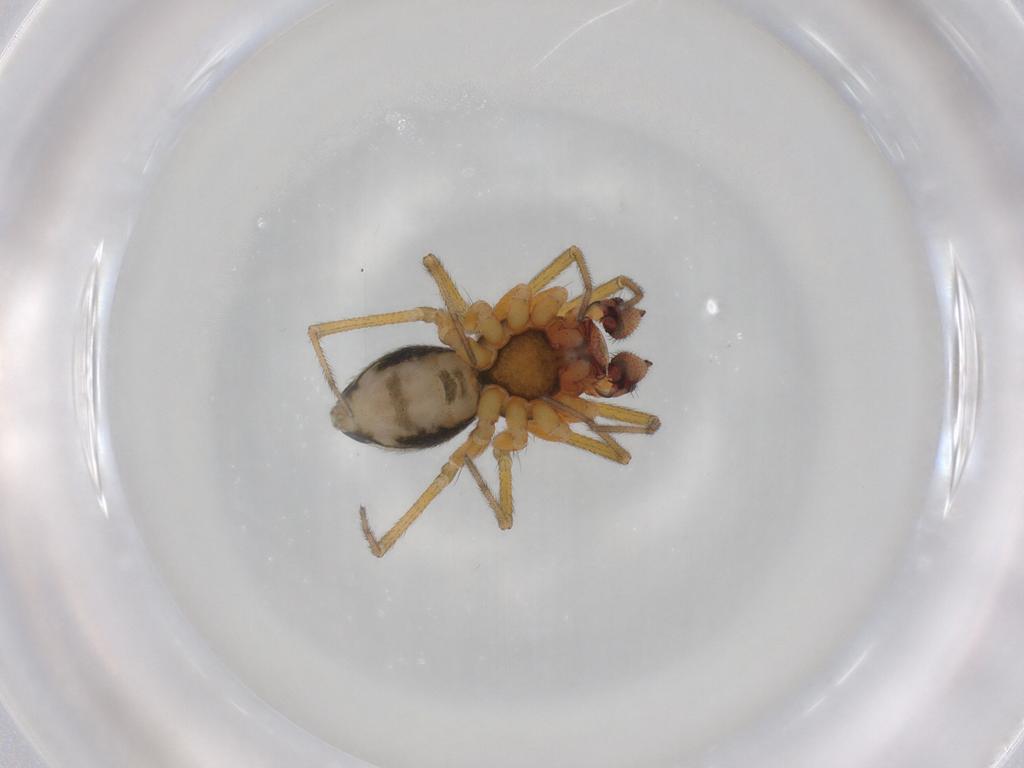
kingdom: Animalia
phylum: Arthropoda
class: Arachnida
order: Araneae
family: Linyphiidae
